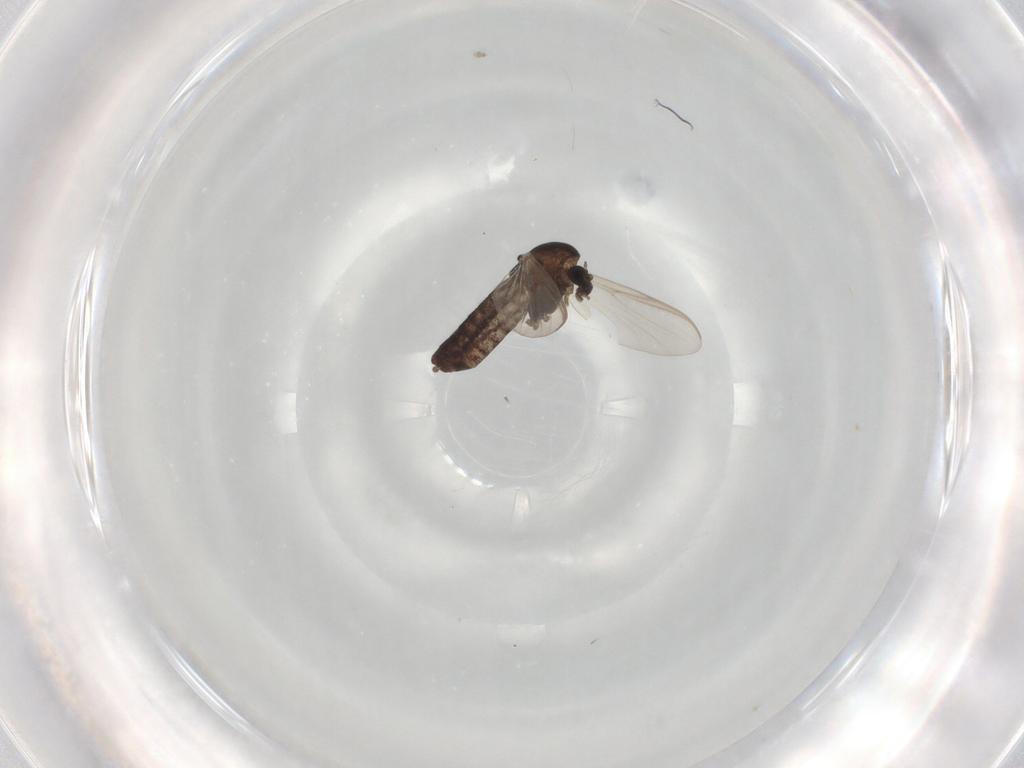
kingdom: Animalia
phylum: Arthropoda
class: Insecta
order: Diptera
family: Chironomidae
